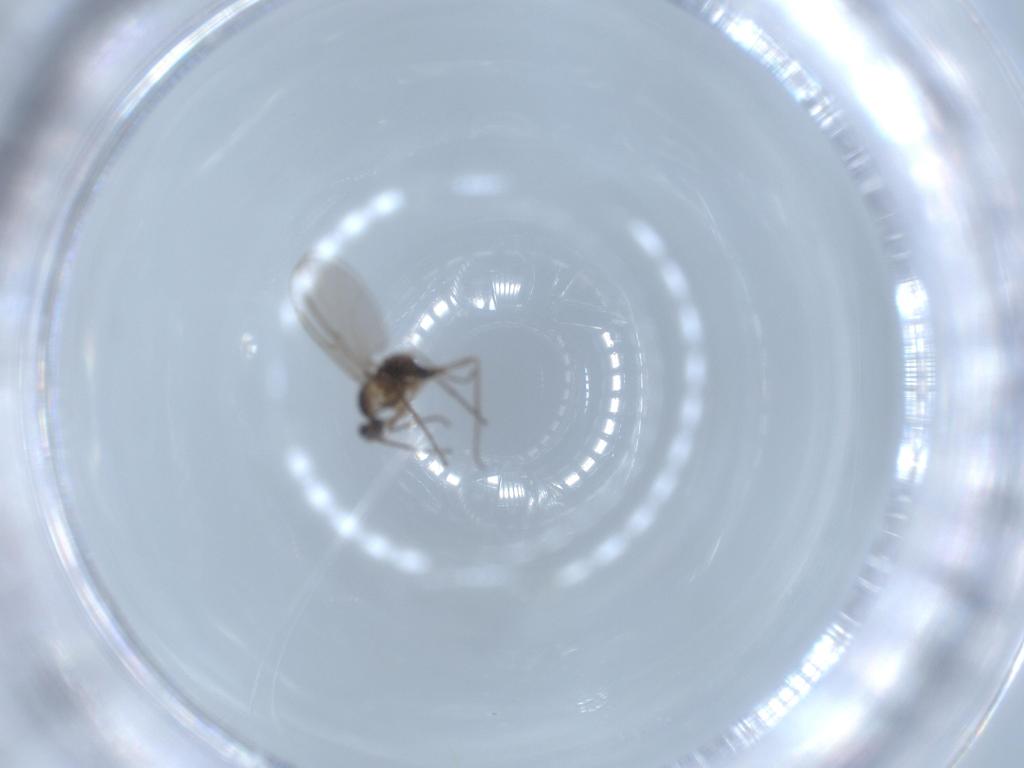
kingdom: Animalia
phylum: Arthropoda
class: Insecta
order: Diptera
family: Cecidomyiidae
